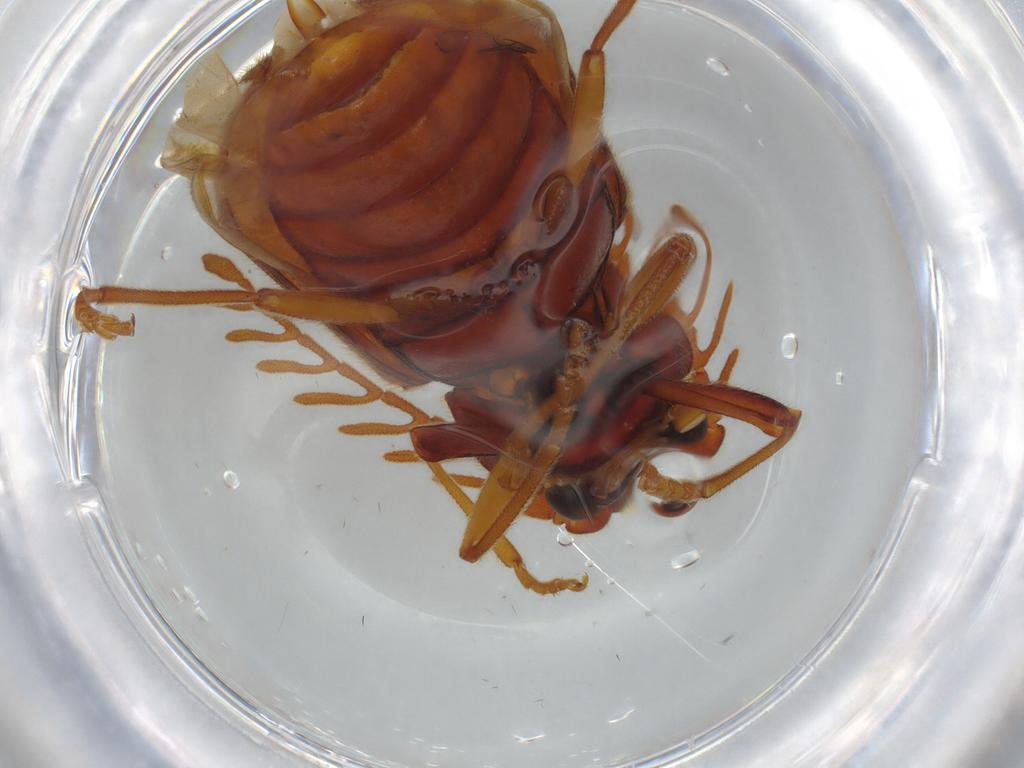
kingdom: Animalia
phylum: Arthropoda
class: Insecta
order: Coleoptera
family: Cerophytidae
